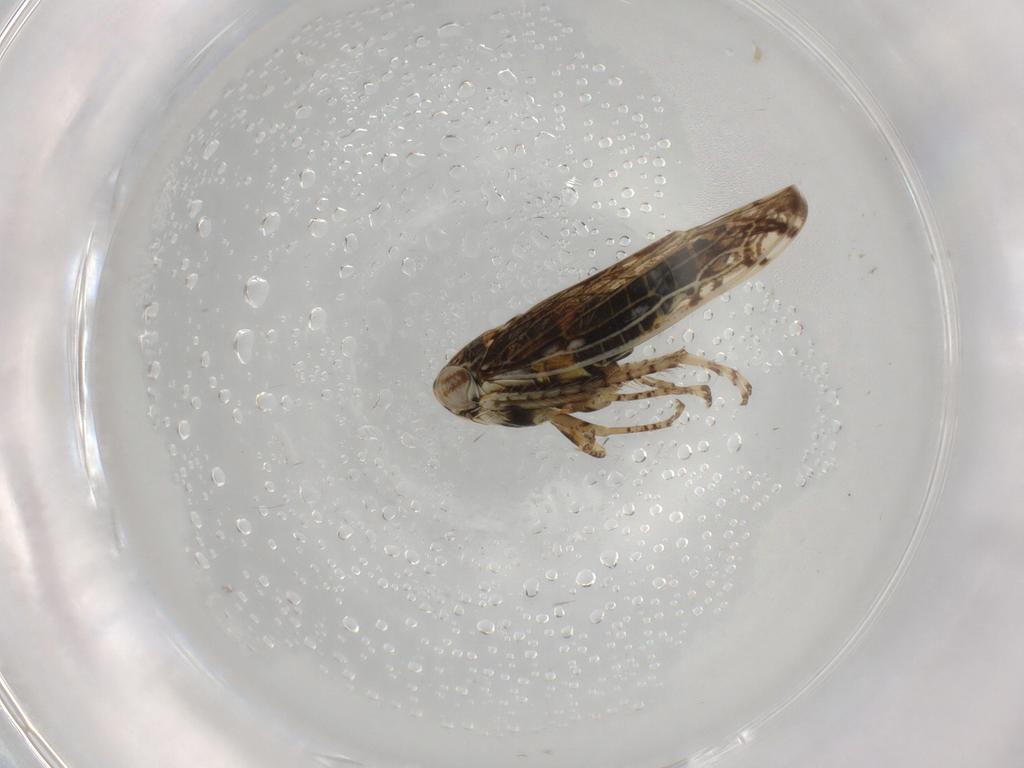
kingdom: Animalia
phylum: Arthropoda
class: Insecta
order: Hemiptera
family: Cicadellidae
